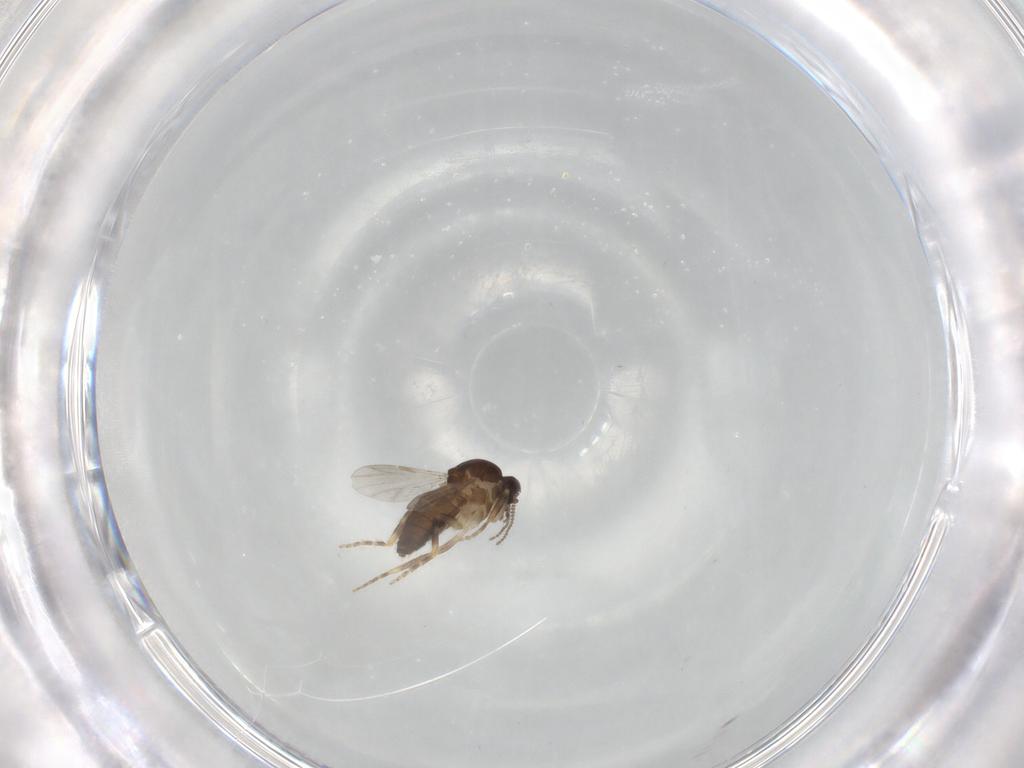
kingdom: Animalia
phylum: Arthropoda
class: Insecta
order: Diptera
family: Ceratopogonidae
